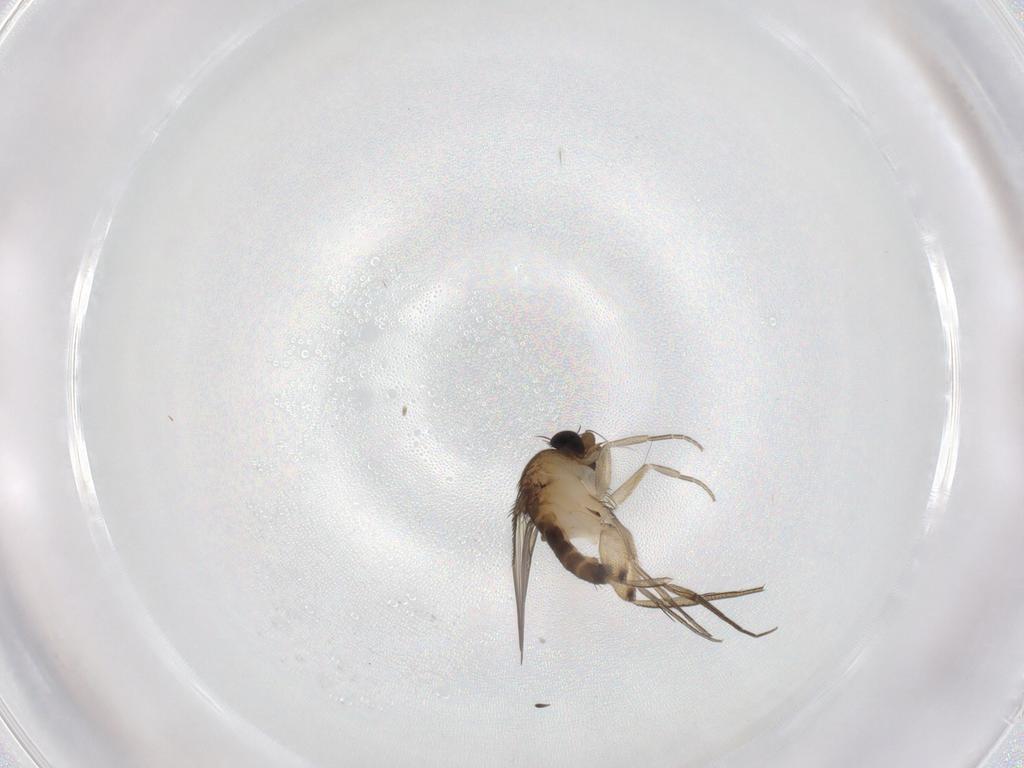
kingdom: Animalia
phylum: Arthropoda
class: Insecta
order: Diptera
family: Phoridae
